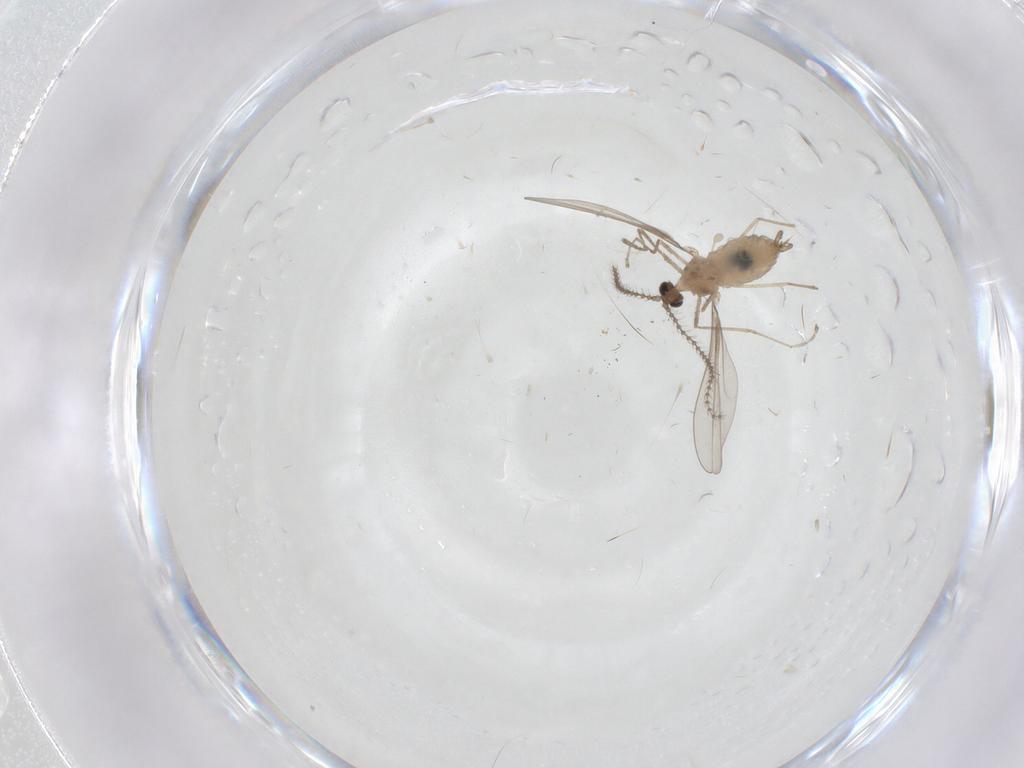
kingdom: Animalia
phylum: Arthropoda
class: Insecta
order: Diptera
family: Cecidomyiidae
